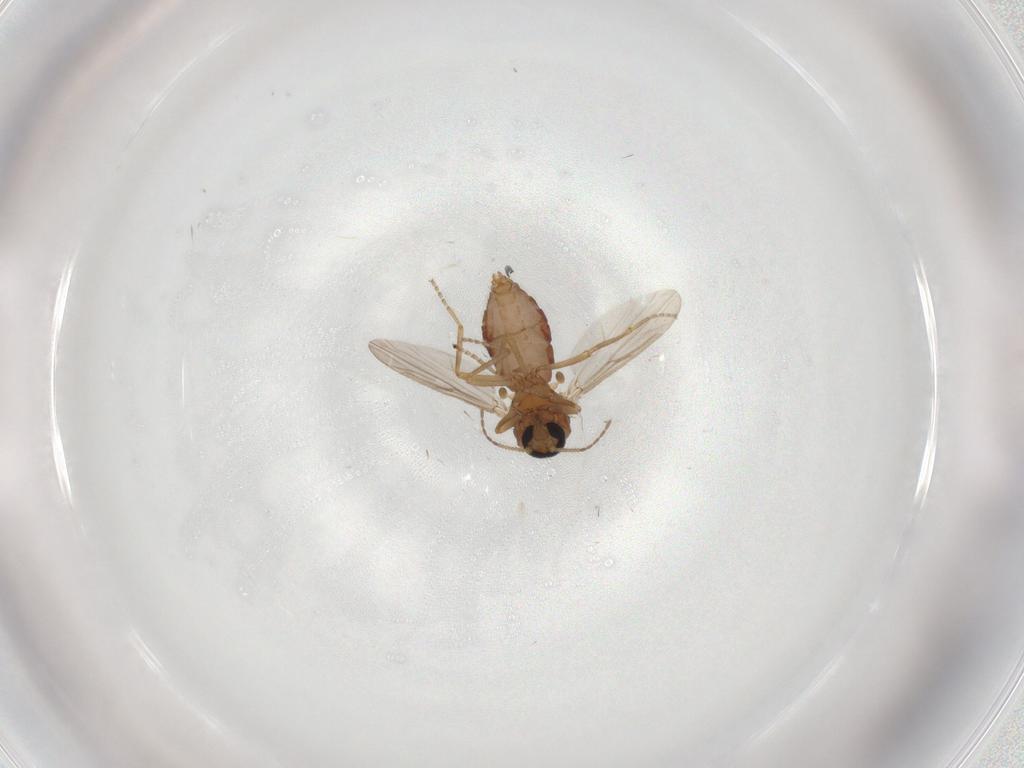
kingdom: Animalia
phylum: Arthropoda
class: Insecta
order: Diptera
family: Ceratopogonidae
